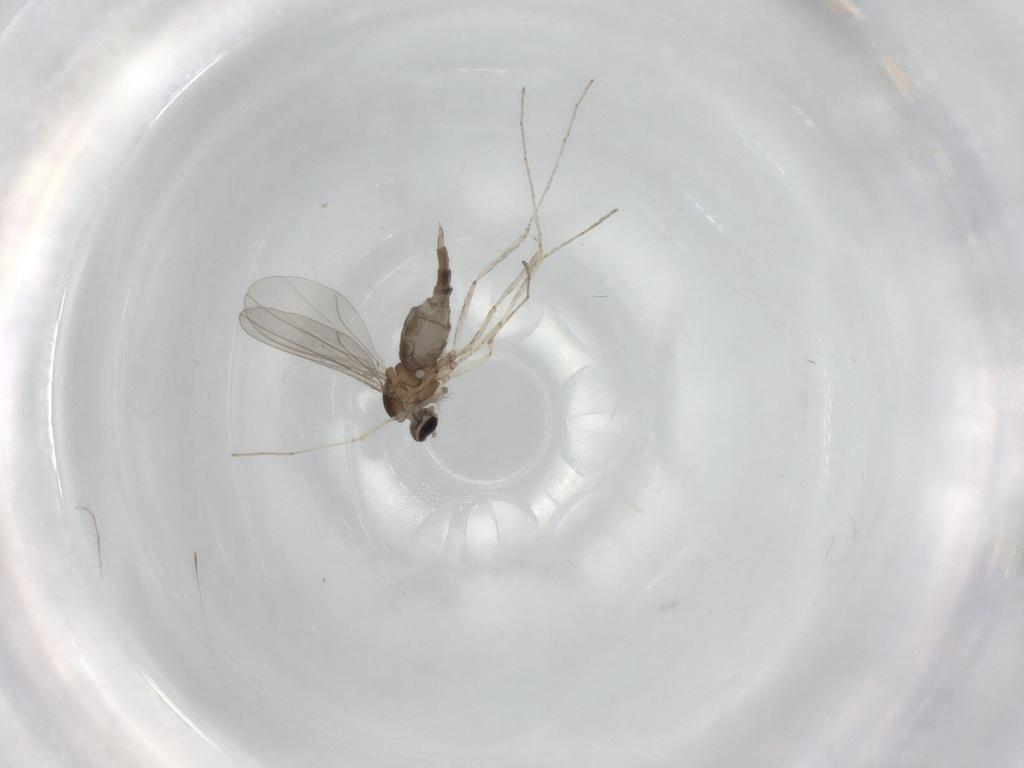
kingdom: Animalia
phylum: Arthropoda
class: Insecta
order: Diptera
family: Cecidomyiidae
